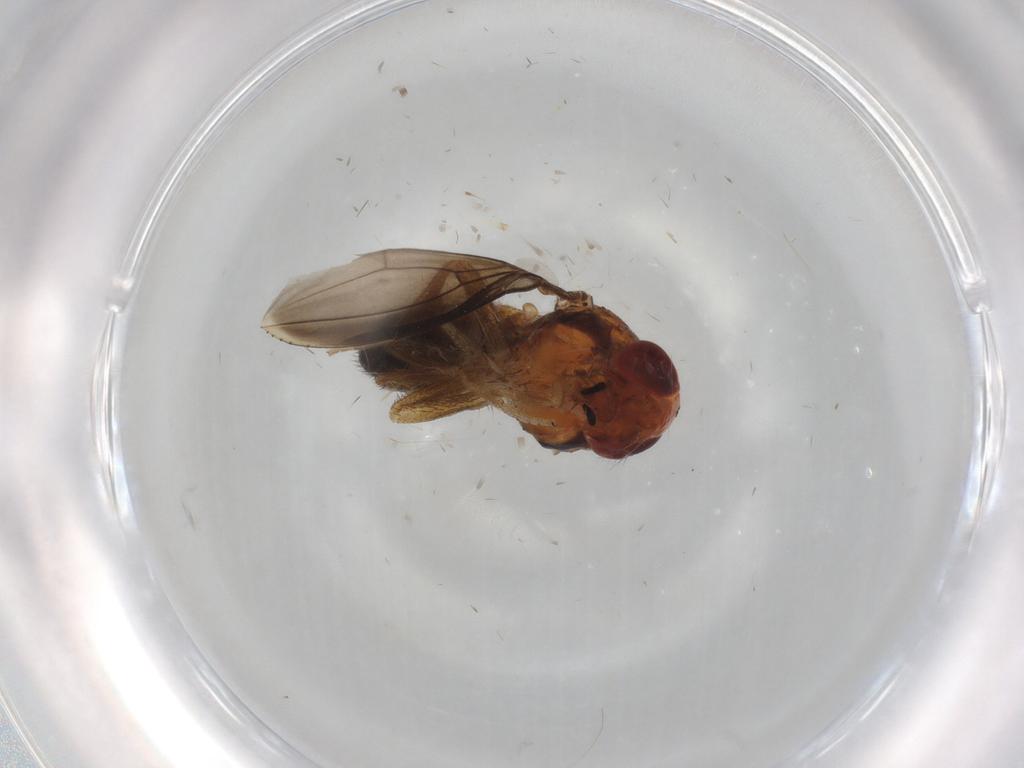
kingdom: Animalia
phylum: Arthropoda
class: Insecta
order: Diptera
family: Drosophilidae
